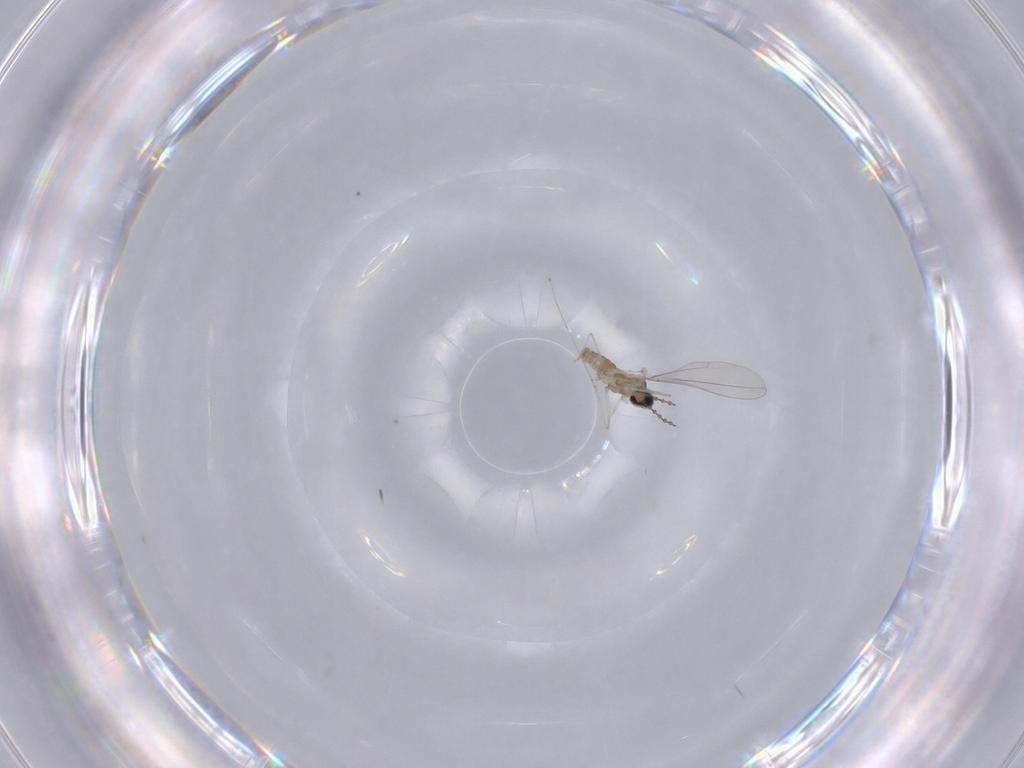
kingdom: Animalia
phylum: Arthropoda
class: Insecta
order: Diptera
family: Cecidomyiidae
